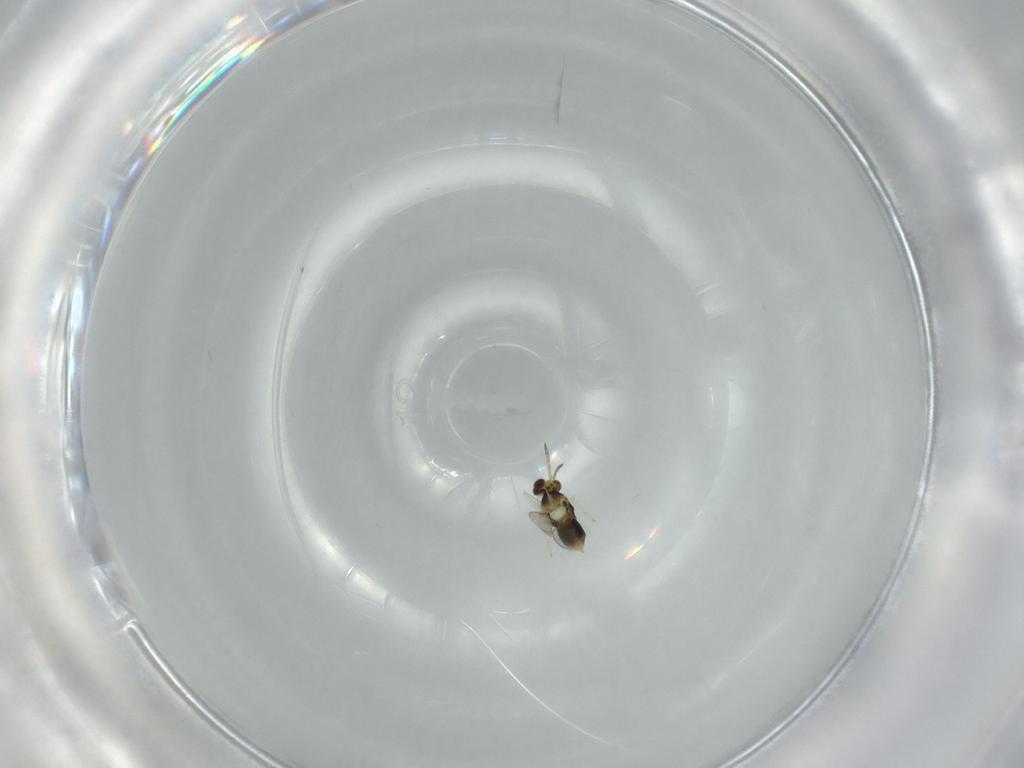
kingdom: Animalia
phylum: Arthropoda
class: Insecta
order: Hymenoptera
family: Aphelinidae
